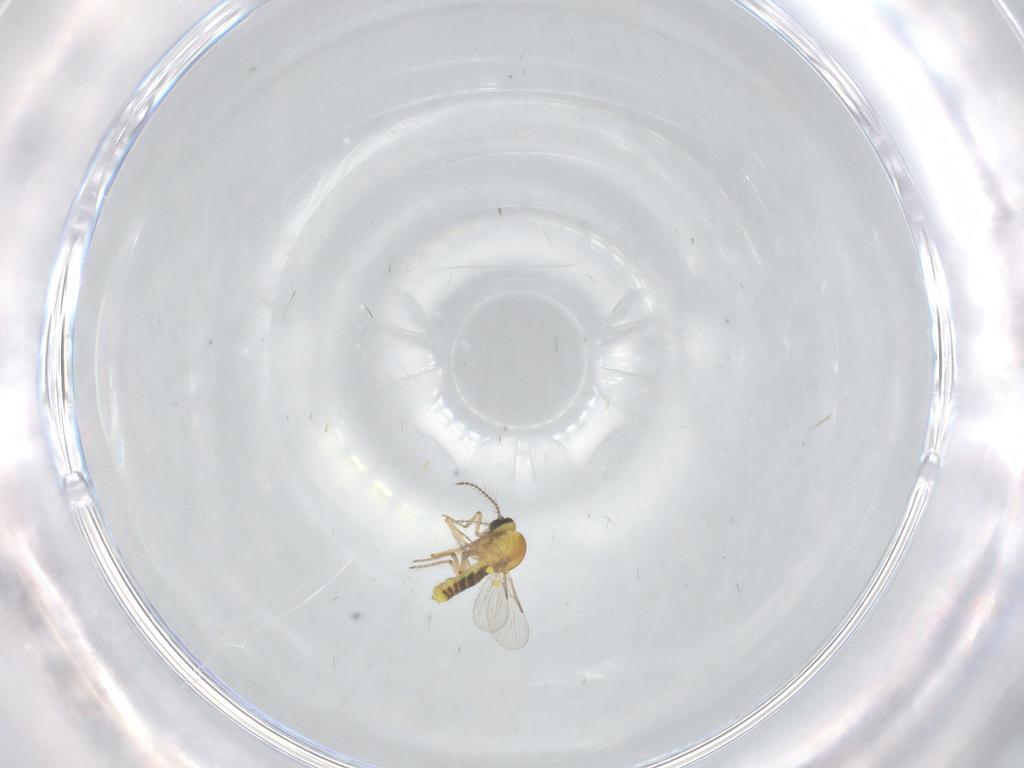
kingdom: Animalia
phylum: Arthropoda
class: Insecta
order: Diptera
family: Ceratopogonidae
